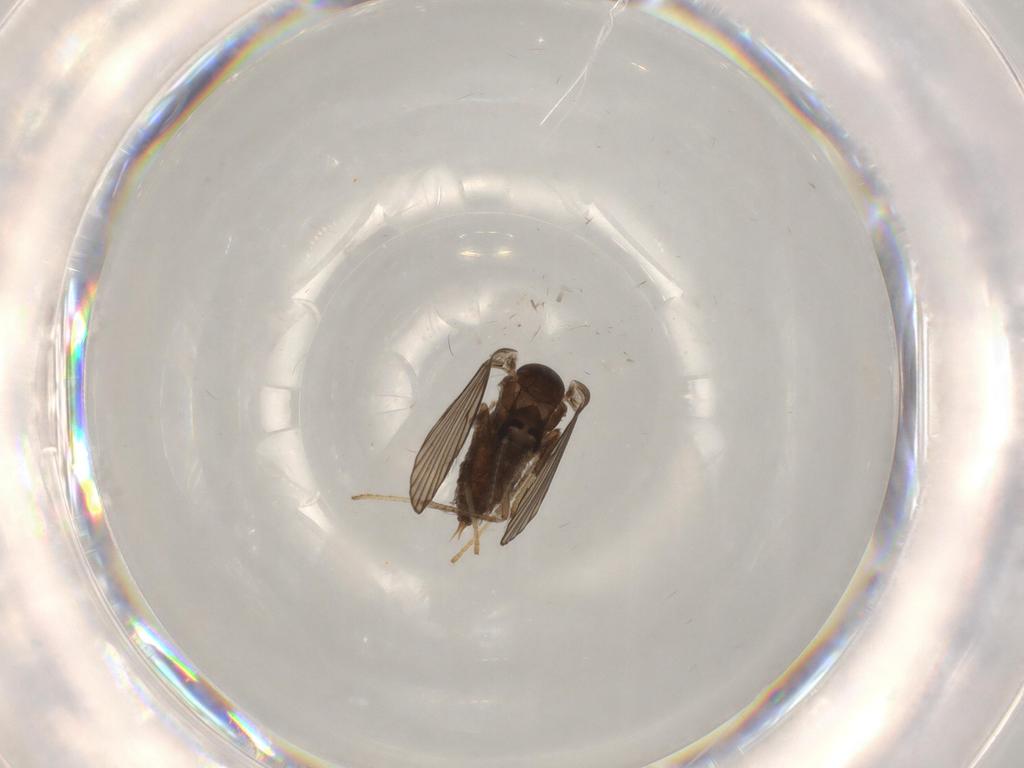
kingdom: Animalia
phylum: Arthropoda
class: Insecta
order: Diptera
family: Psychodidae
